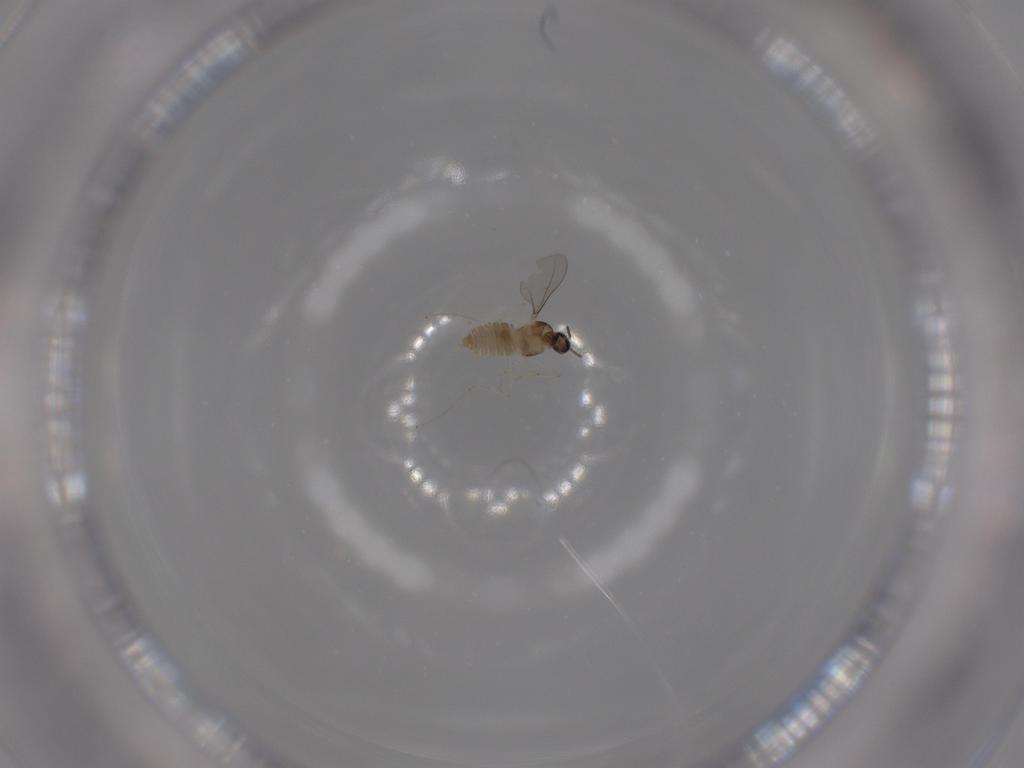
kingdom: Animalia
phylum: Arthropoda
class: Insecta
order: Diptera
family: Cecidomyiidae
